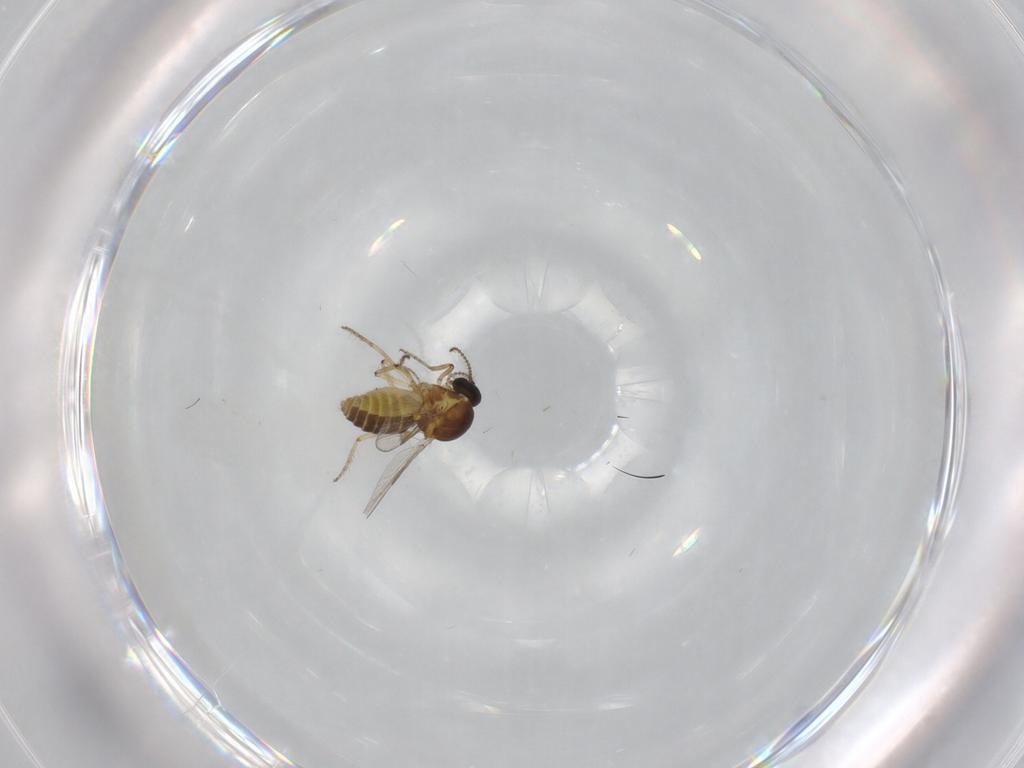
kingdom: Animalia
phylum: Arthropoda
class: Insecta
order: Diptera
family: Ceratopogonidae
